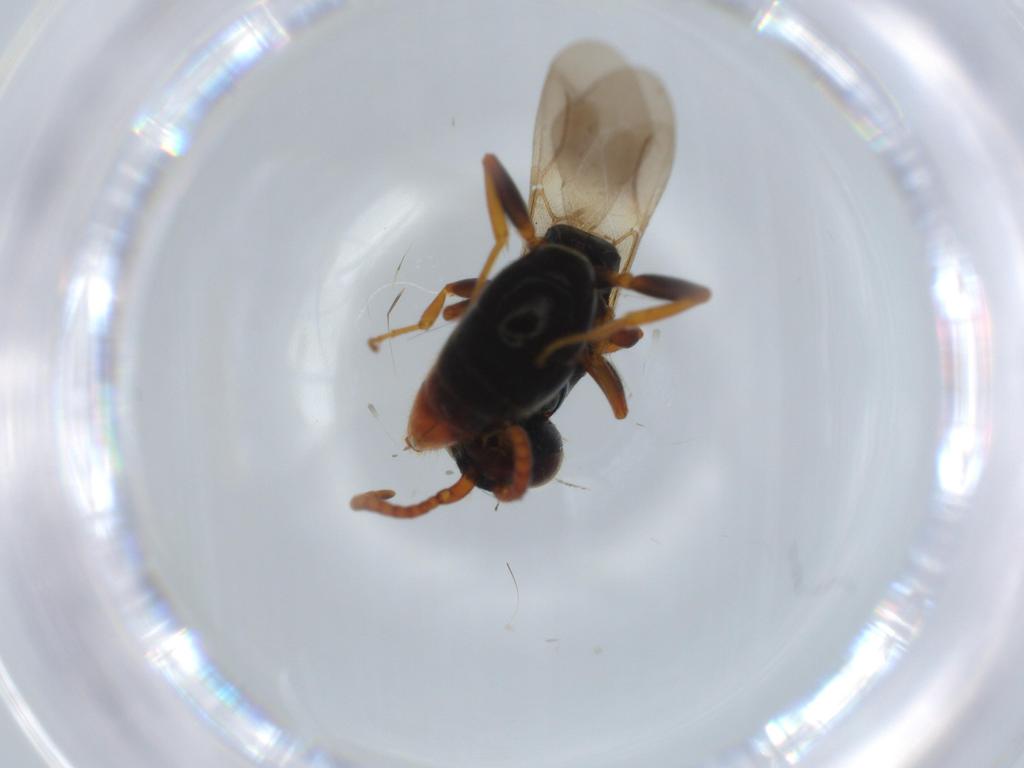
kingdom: Animalia
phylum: Arthropoda
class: Insecta
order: Hymenoptera
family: Bethylidae
